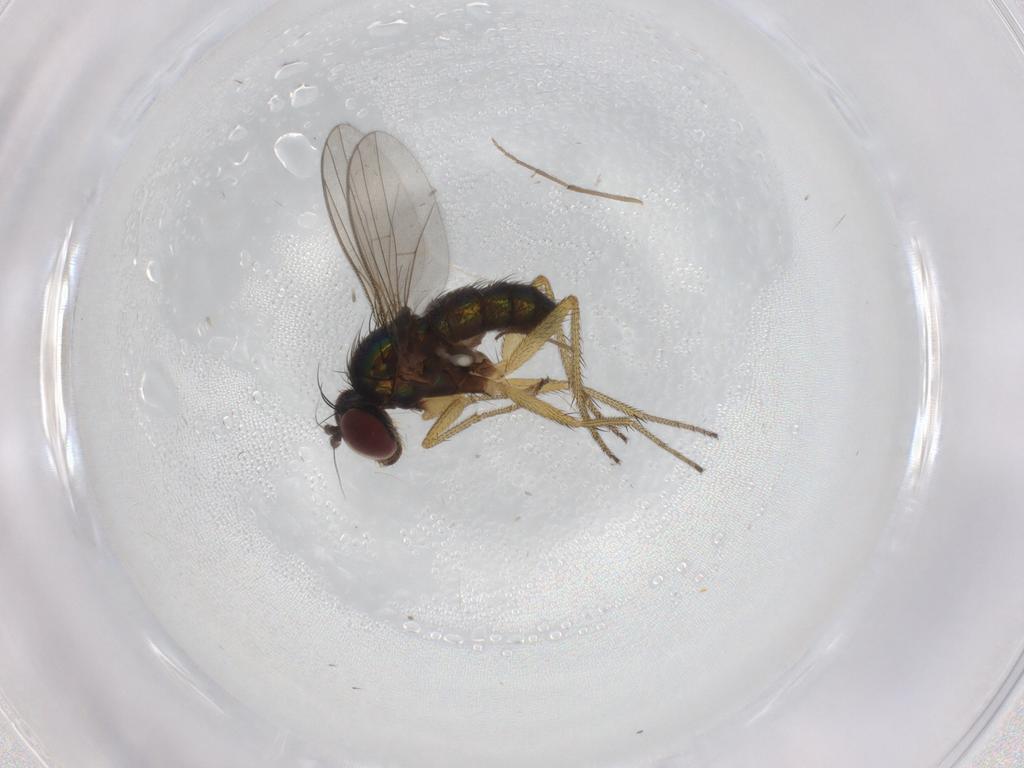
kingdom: Animalia
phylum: Arthropoda
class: Insecta
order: Diptera
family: Dolichopodidae
